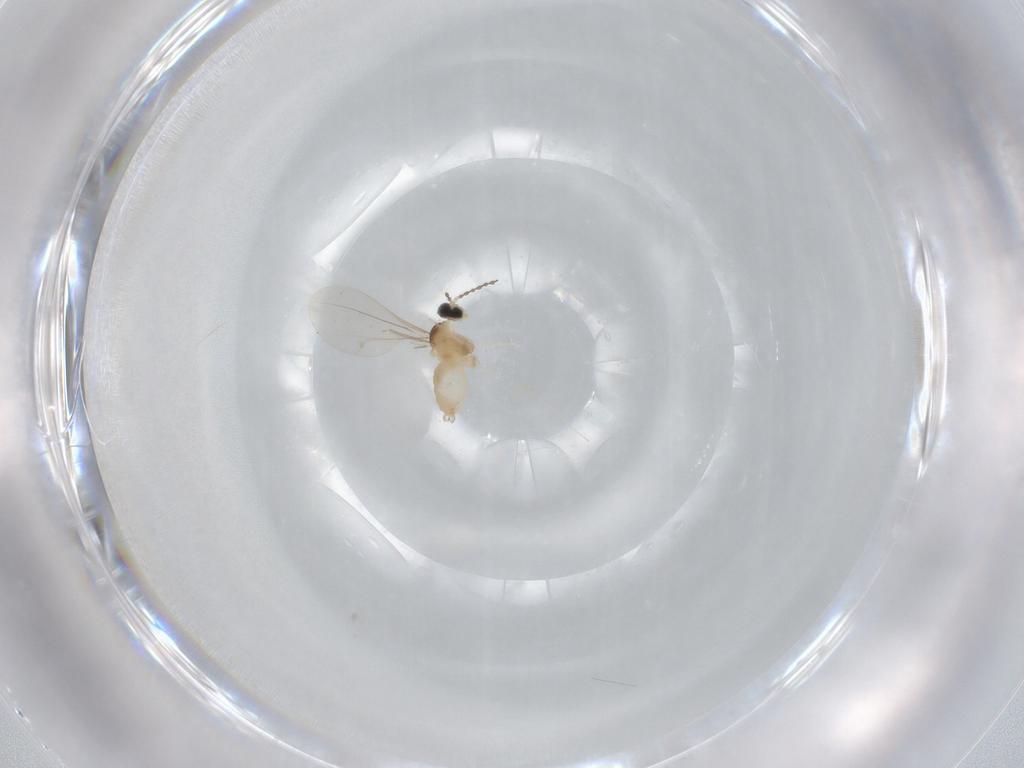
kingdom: Animalia
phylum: Arthropoda
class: Insecta
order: Diptera
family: Cecidomyiidae
